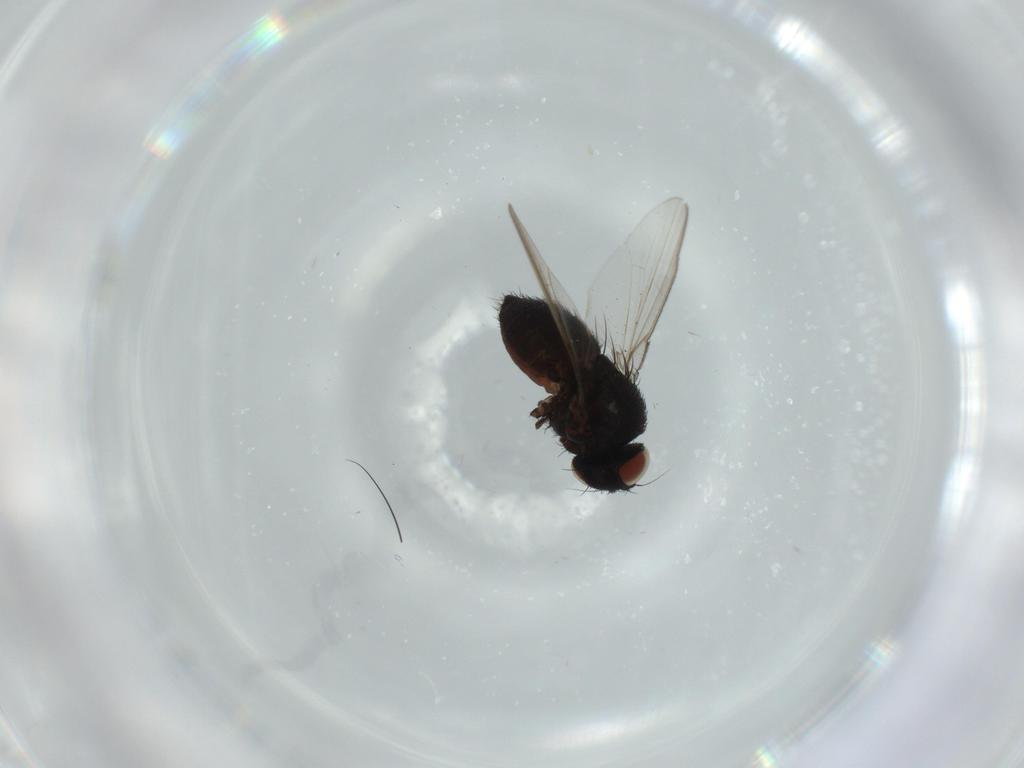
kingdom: Animalia
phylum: Arthropoda
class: Insecta
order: Diptera
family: Milichiidae
